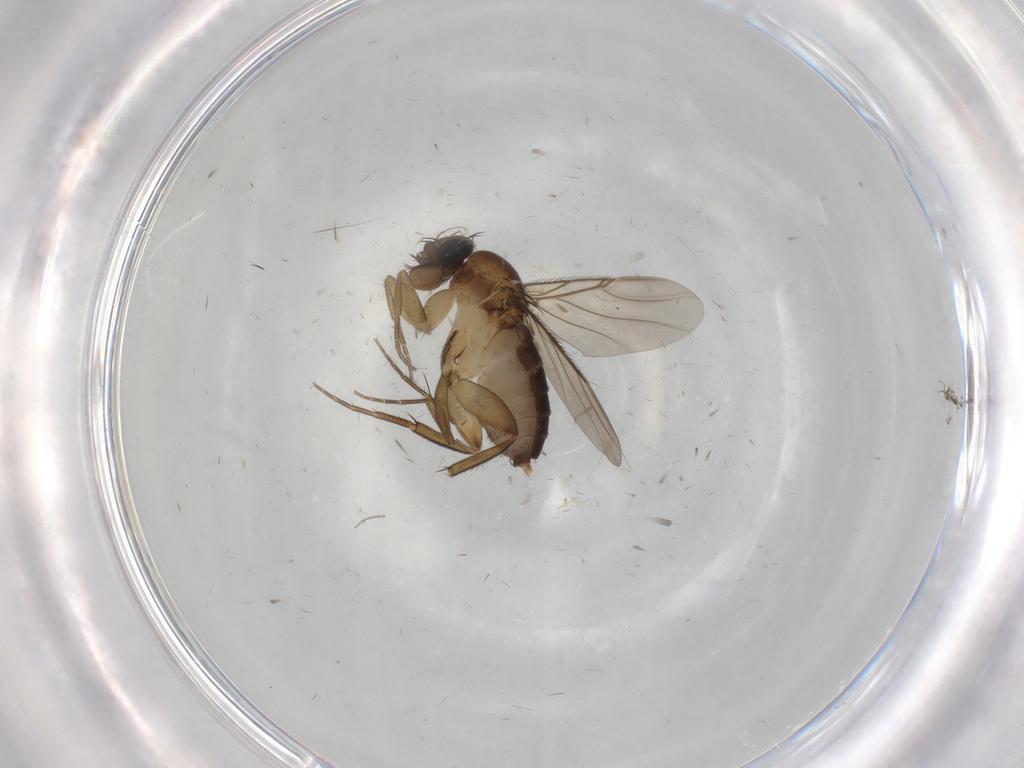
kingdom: Animalia
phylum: Arthropoda
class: Insecta
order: Diptera
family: Phoridae
